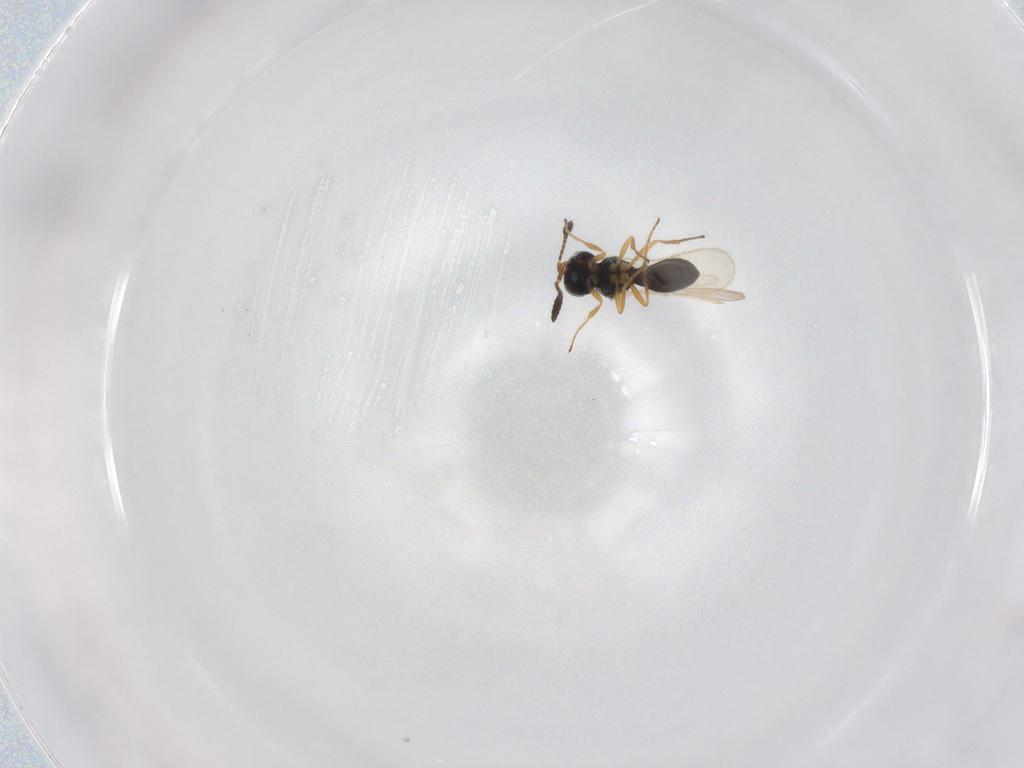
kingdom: Animalia
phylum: Arthropoda
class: Insecta
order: Hymenoptera
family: Scelionidae
